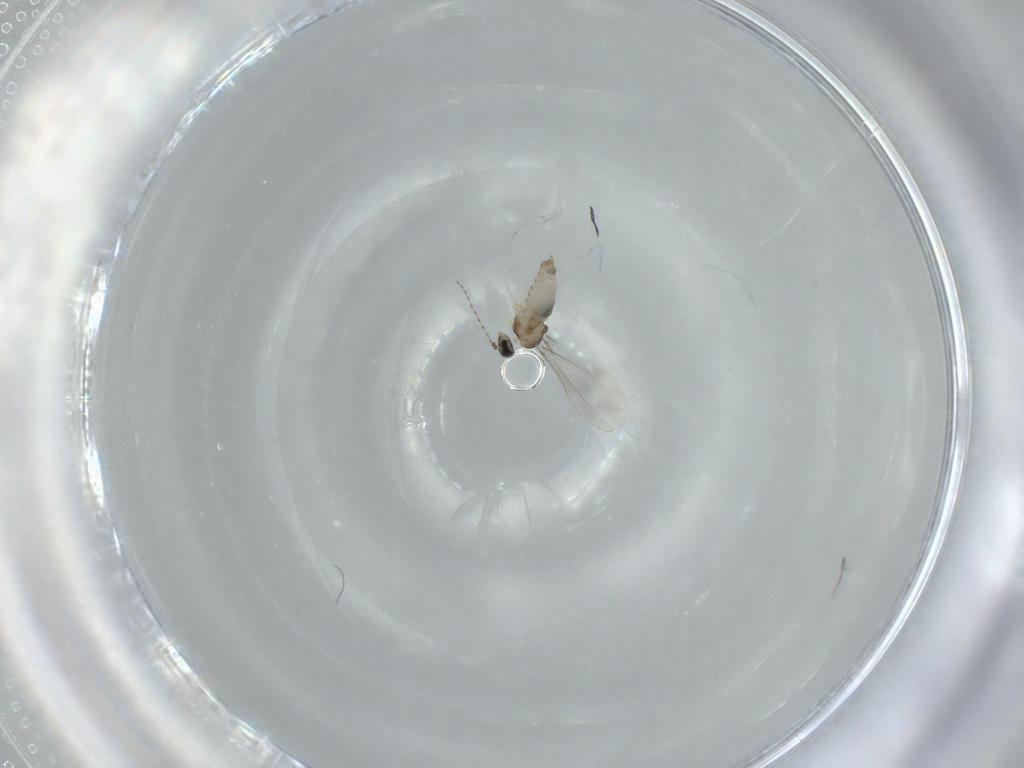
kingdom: Animalia
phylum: Arthropoda
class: Insecta
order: Diptera
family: Cecidomyiidae
